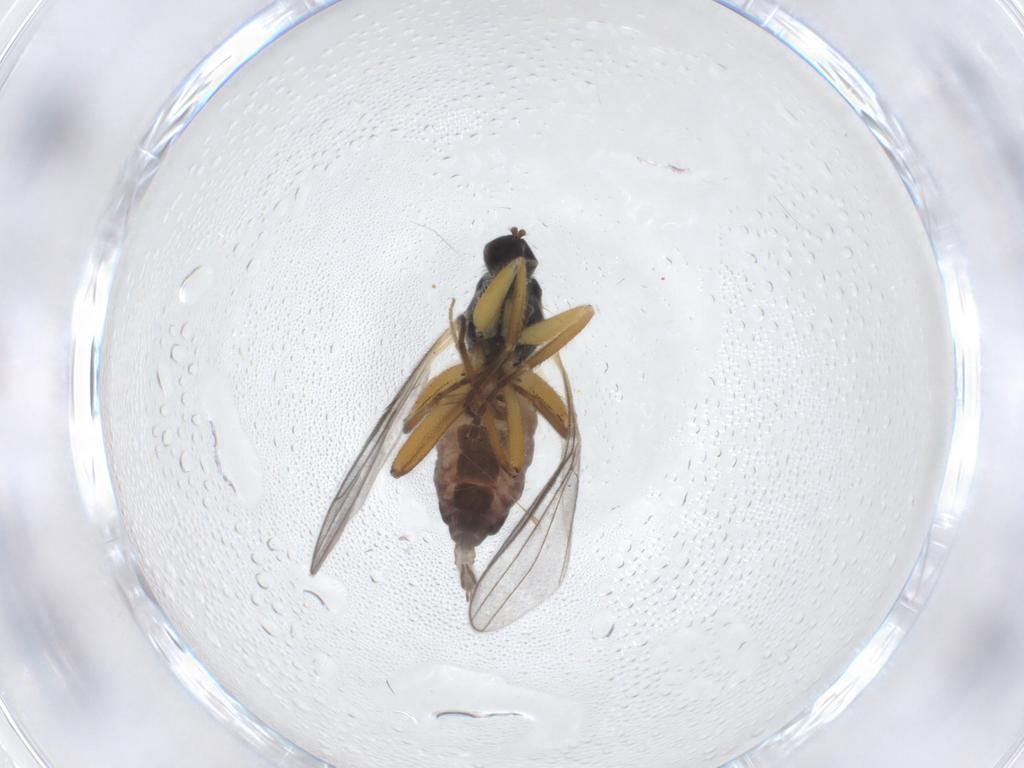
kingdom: Animalia
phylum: Arthropoda
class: Insecta
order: Diptera
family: Hybotidae
